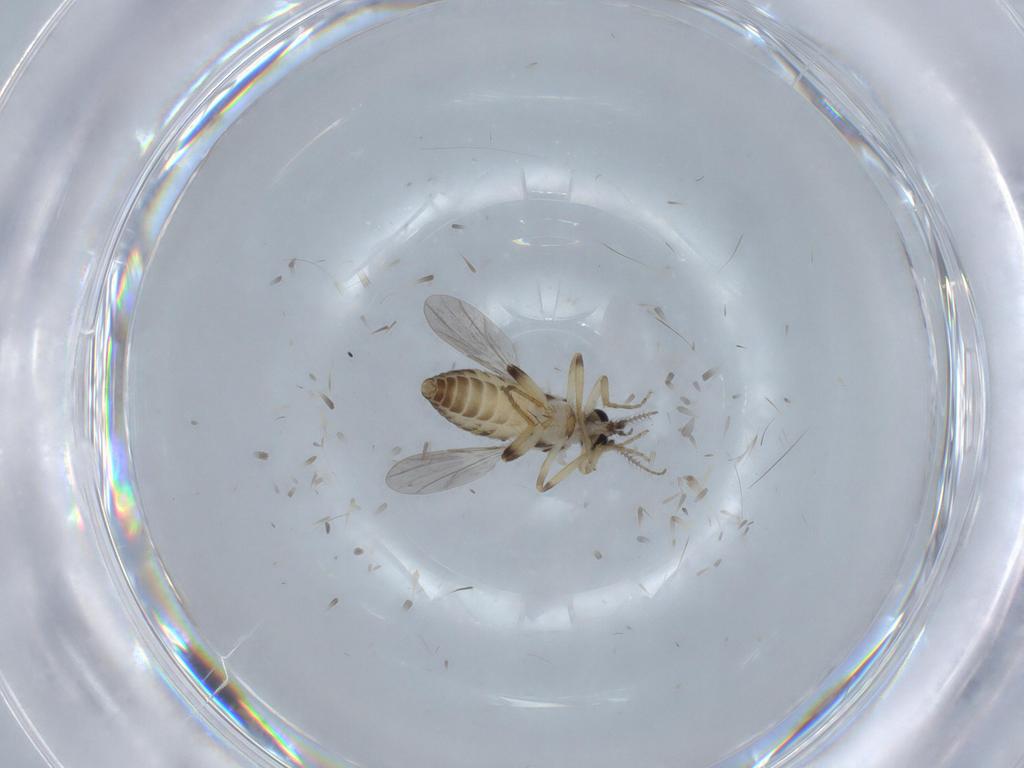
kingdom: Animalia
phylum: Arthropoda
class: Insecta
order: Diptera
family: Ceratopogonidae
